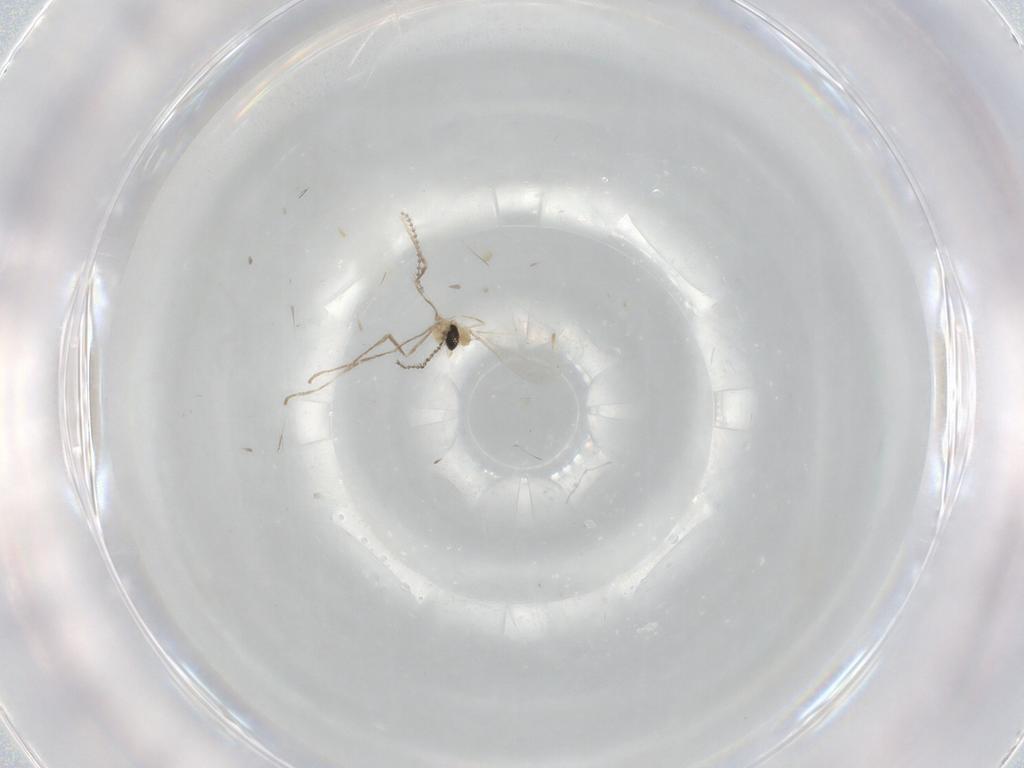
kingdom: Animalia
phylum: Arthropoda
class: Insecta
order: Diptera
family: Cecidomyiidae
